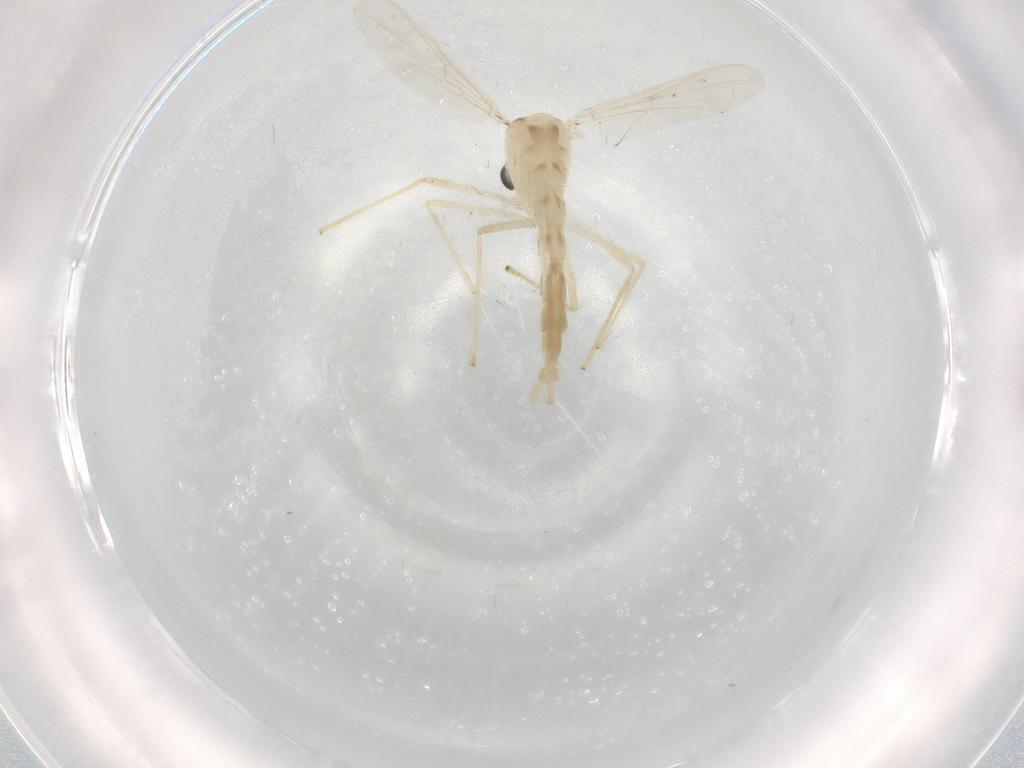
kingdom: Animalia
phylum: Arthropoda
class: Insecta
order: Diptera
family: Chironomidae
